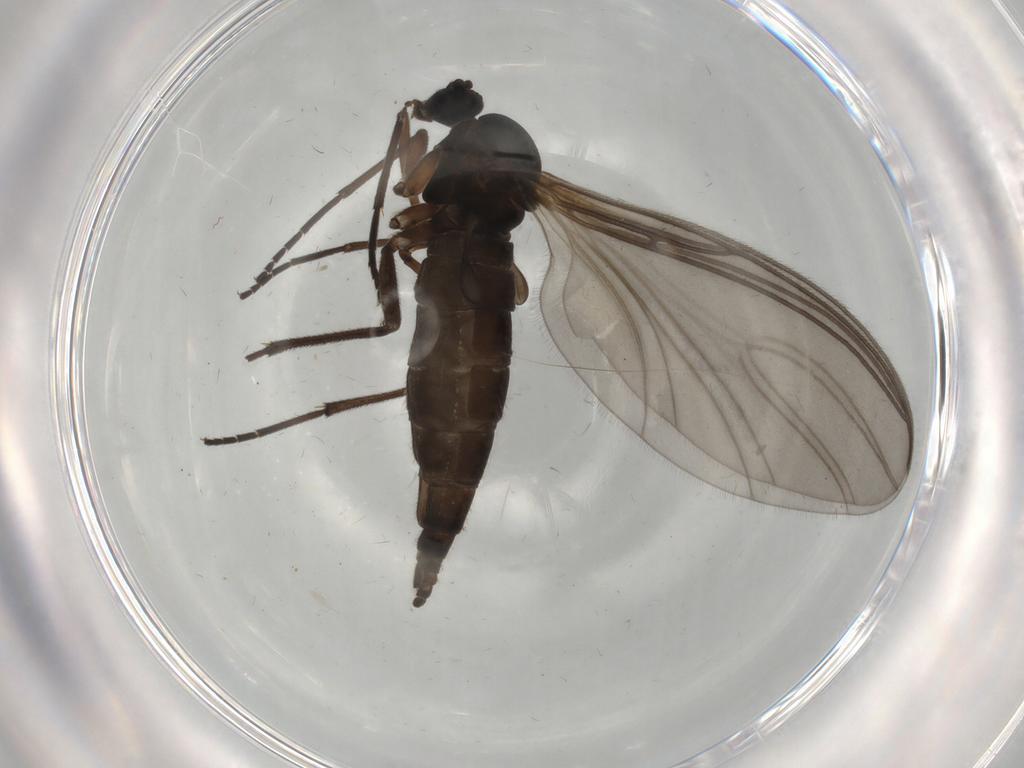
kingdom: Animalia
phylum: Arthropoda
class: Insecta
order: Diptera
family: Sciaridae
